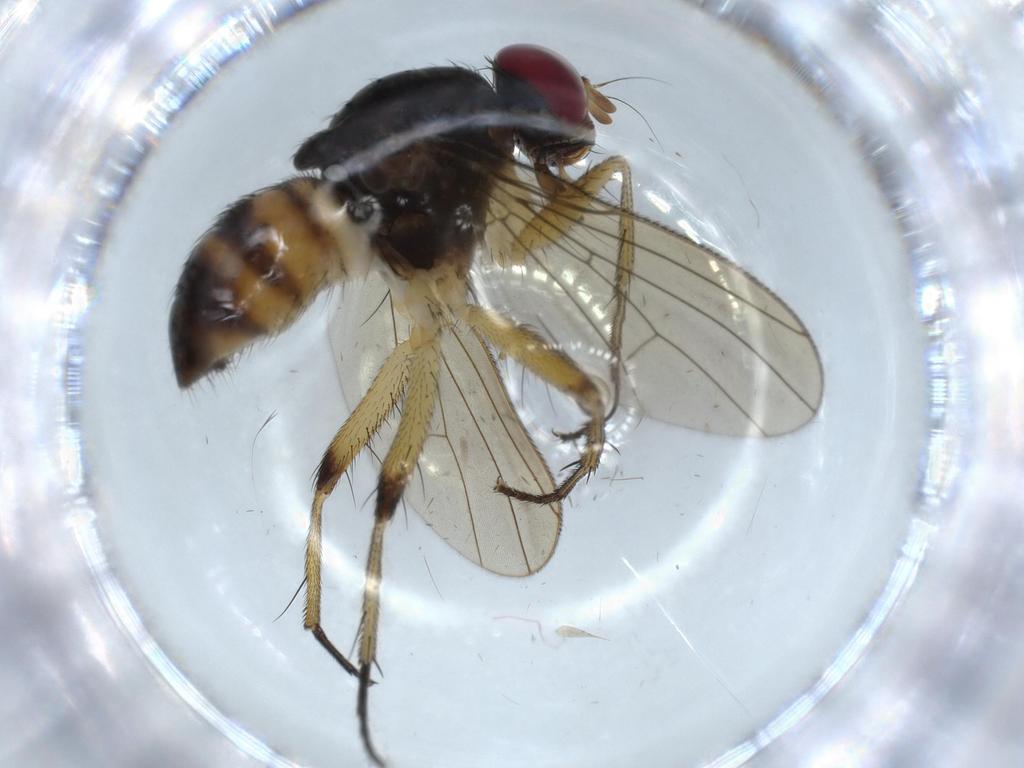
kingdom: Animalia
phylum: Arthropoda
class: Insecta
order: Diptera
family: Muscidae
